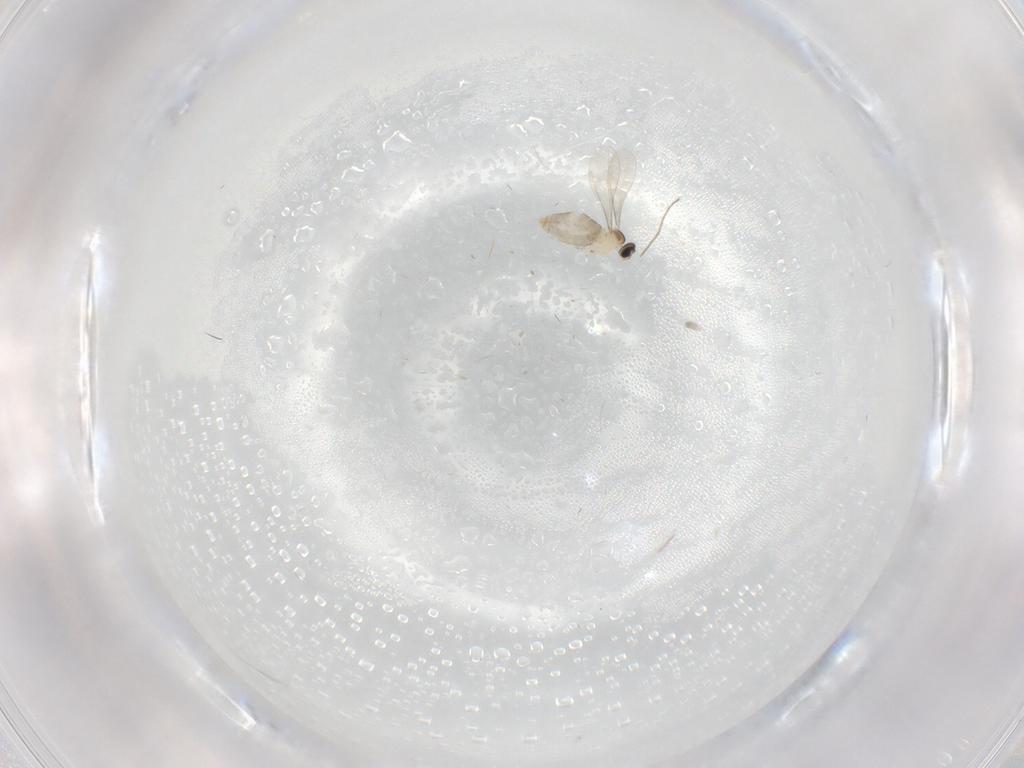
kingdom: Animalia
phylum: Arthropoda
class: Insecta
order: Diptera
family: Cecidomyiidae
